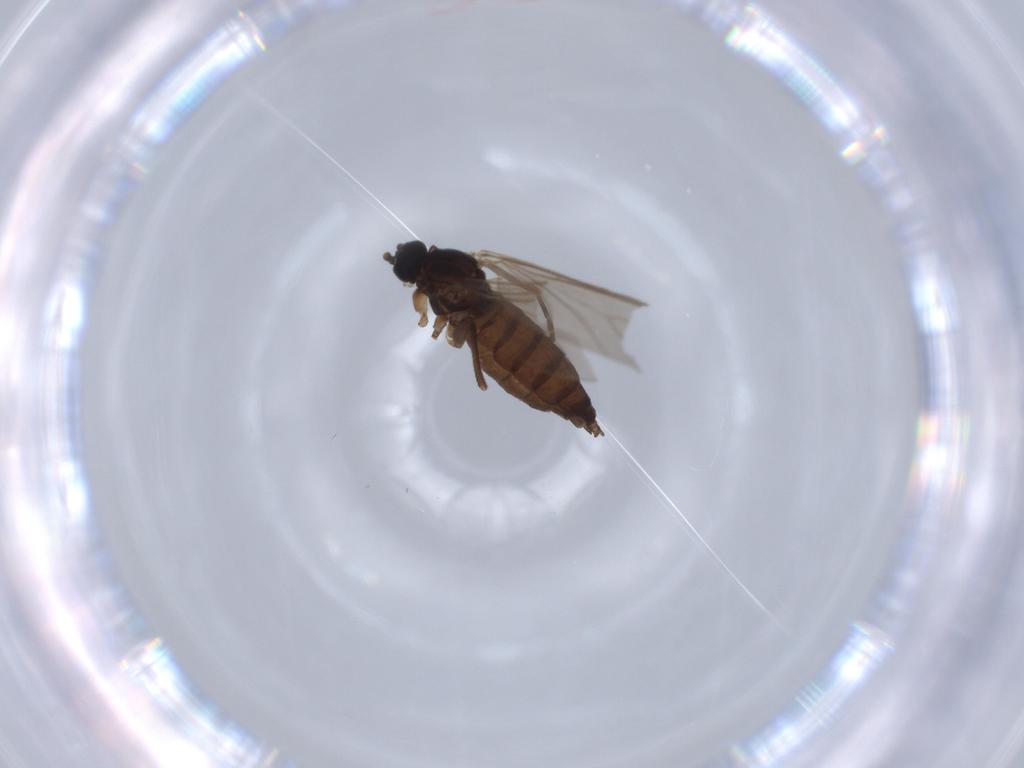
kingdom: Animalia
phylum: Arthropoda
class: Insecta
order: Diptera
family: Sciaridae
